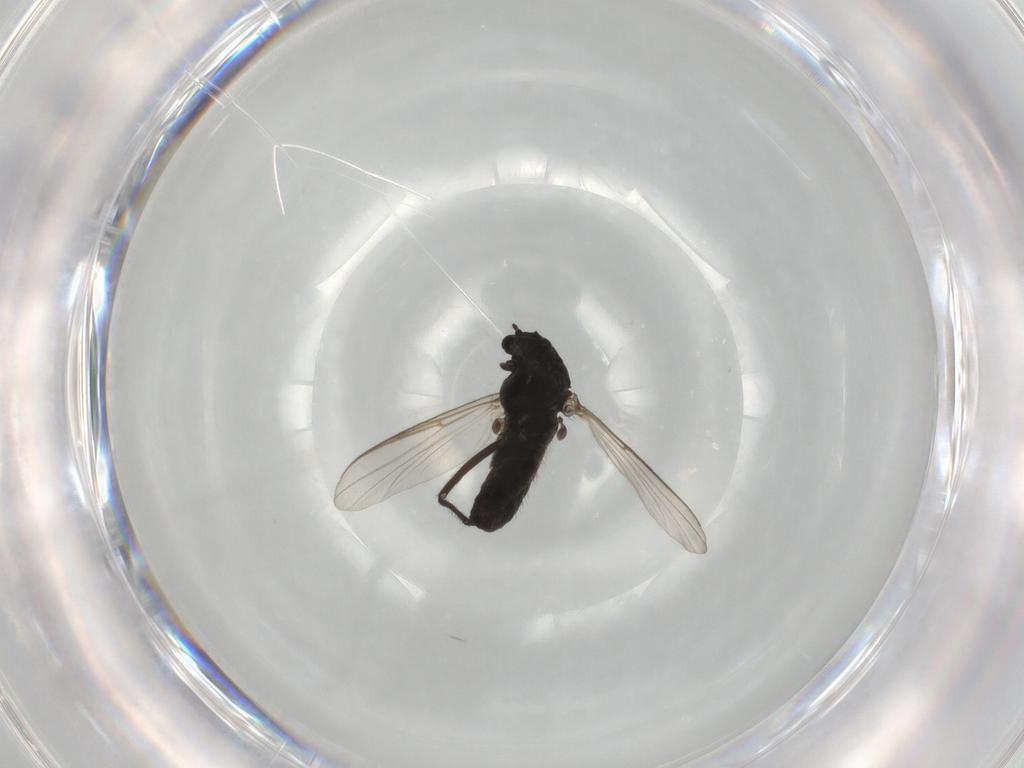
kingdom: Animalia
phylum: Arthropoda
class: Insecta
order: Diptera
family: Chironomidae
